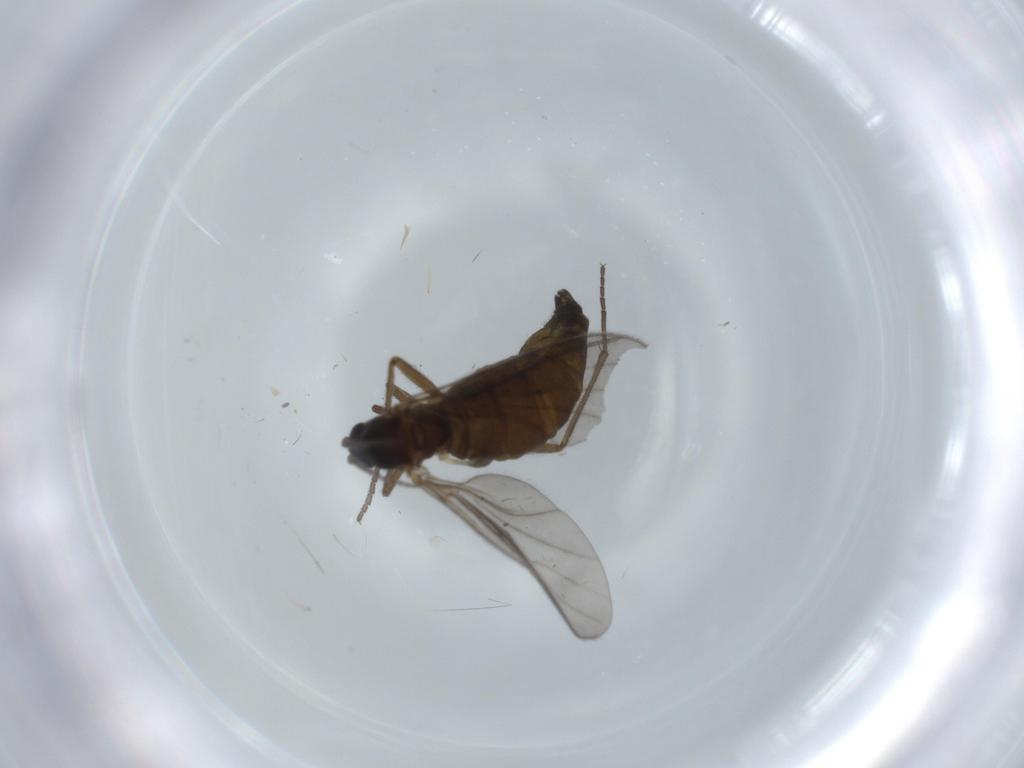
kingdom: Animalia
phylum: Arthropoda
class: Insecta
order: Diptera
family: Sciaridae
